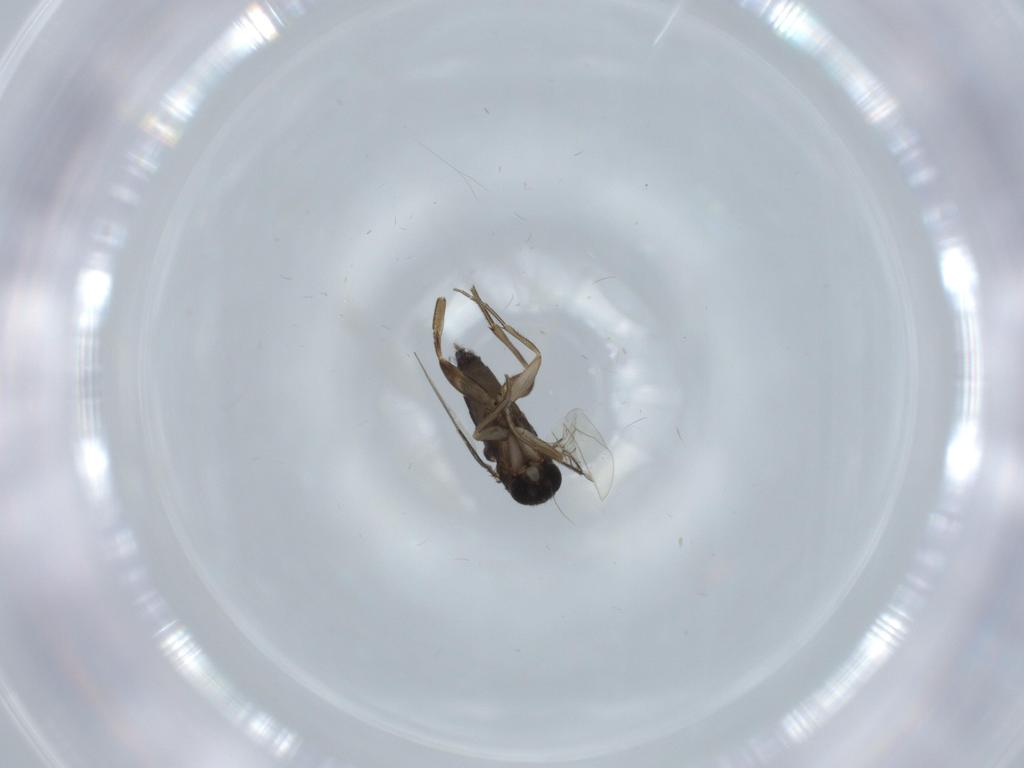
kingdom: Animalia
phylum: Arthropoda
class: Insecta
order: Diptera
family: Phoridae
